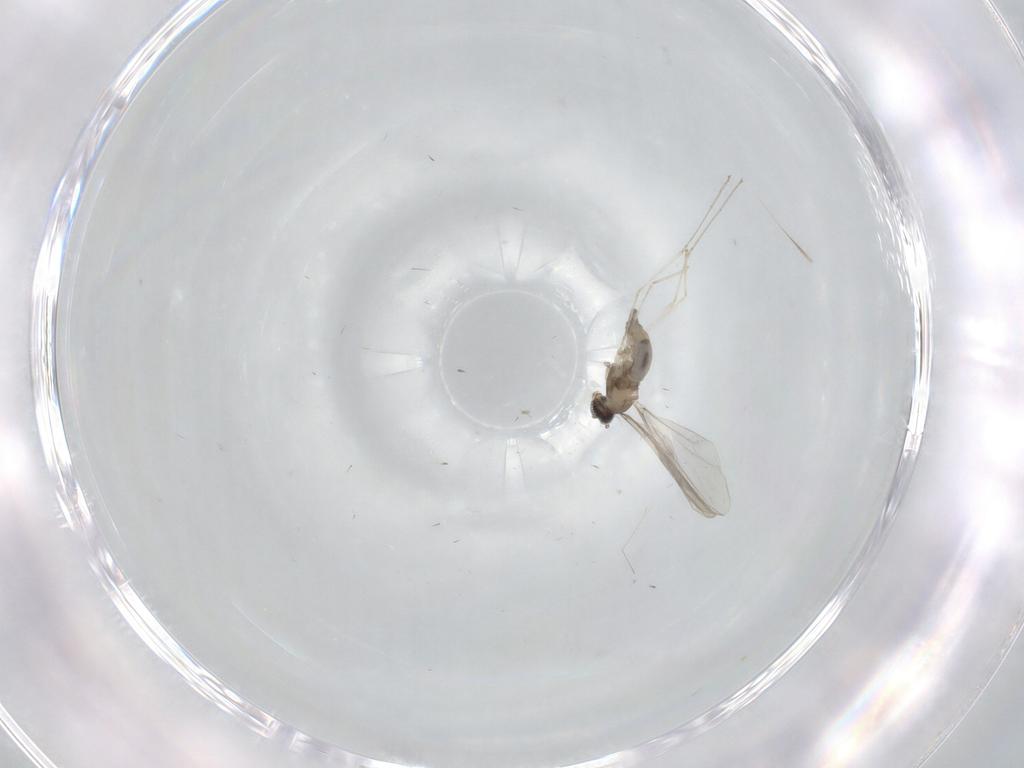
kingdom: Animalia
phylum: Arthropoda
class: Insecta
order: Diptera
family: Cecidomyiidae
